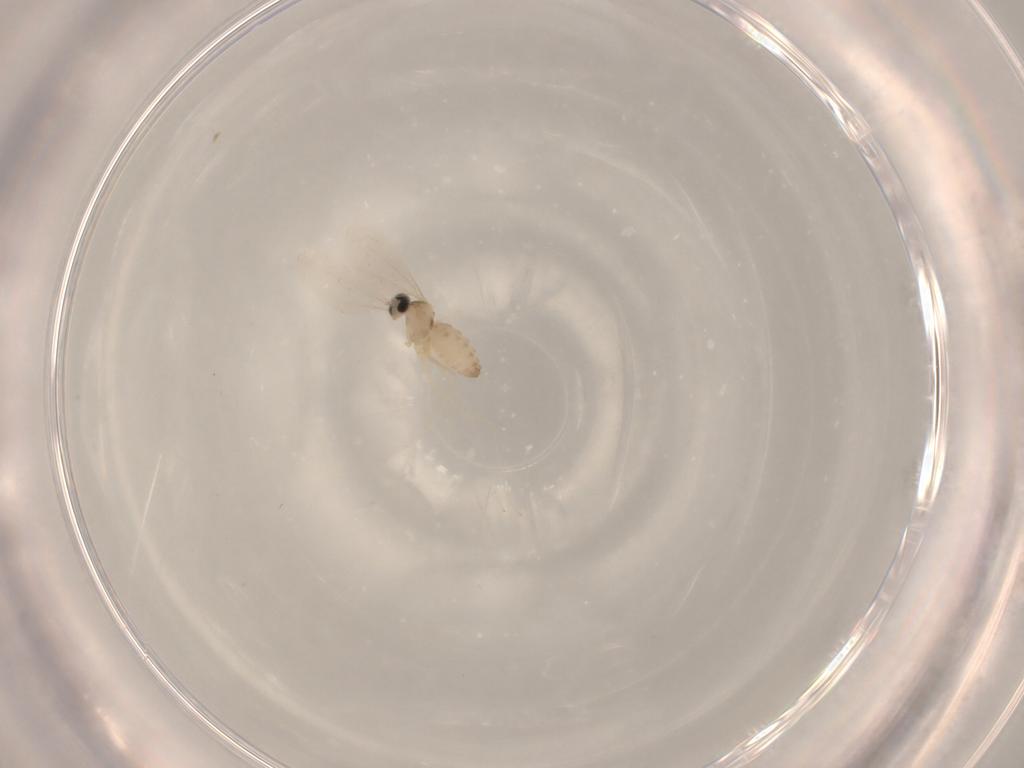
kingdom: Animalia
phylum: Arthropoda
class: Insecta
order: Diptera
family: Cecidomyiidae
